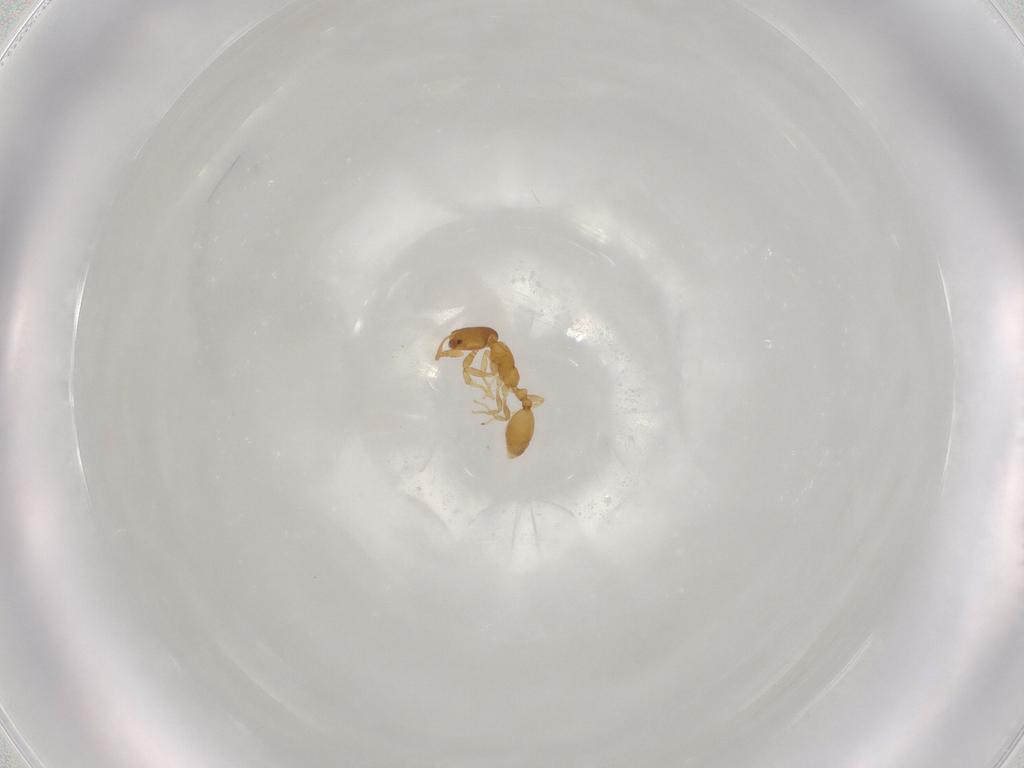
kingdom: Animalia
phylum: Arthropoda
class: Insecta
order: Hymenoptera
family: Formicidae
